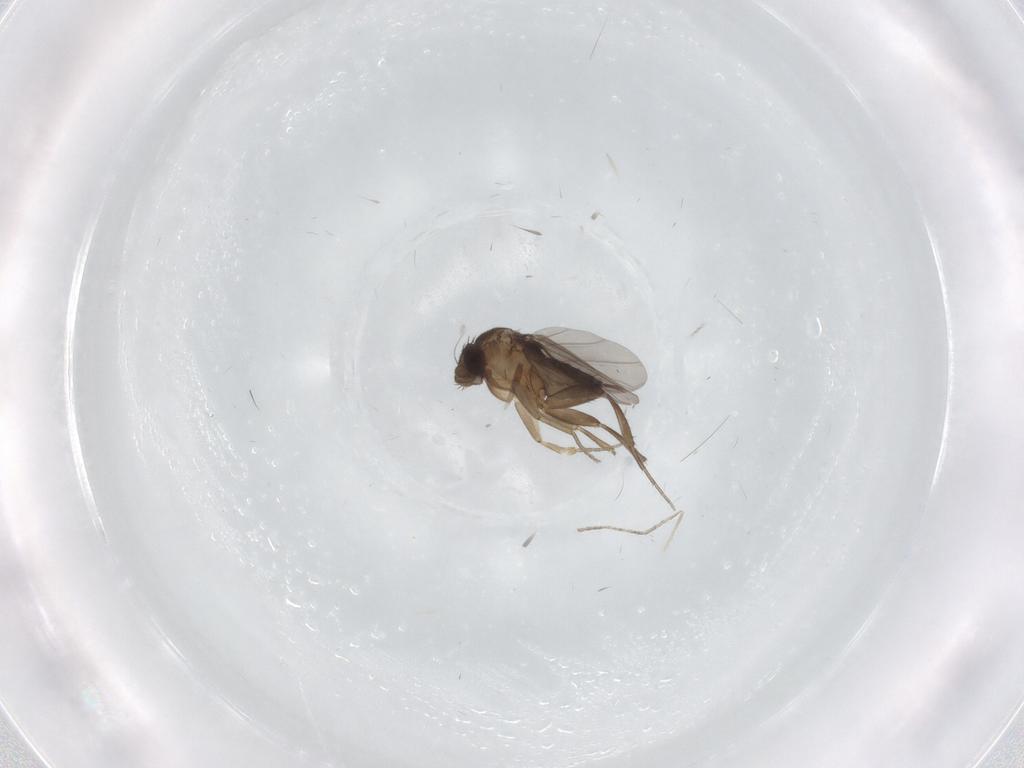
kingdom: Animalia
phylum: Arthropoda
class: Insecta
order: Diptera
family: Phoridae
